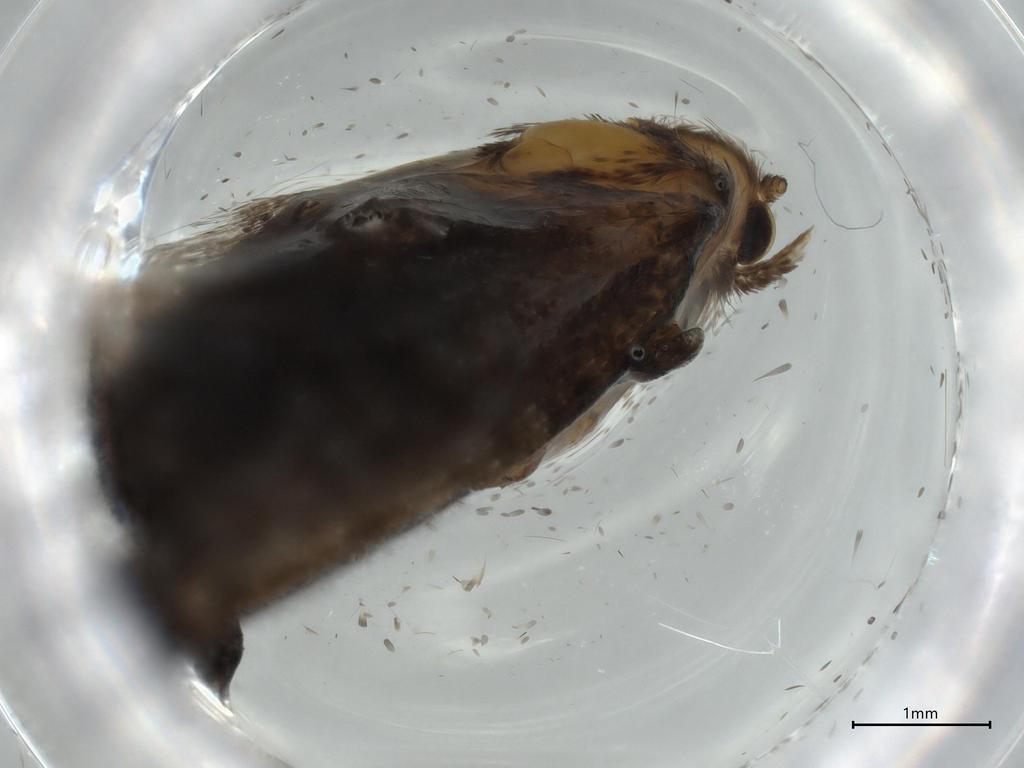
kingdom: Animalia
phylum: Arthropoda
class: Insecta
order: Lepidoptera
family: Tineidae
